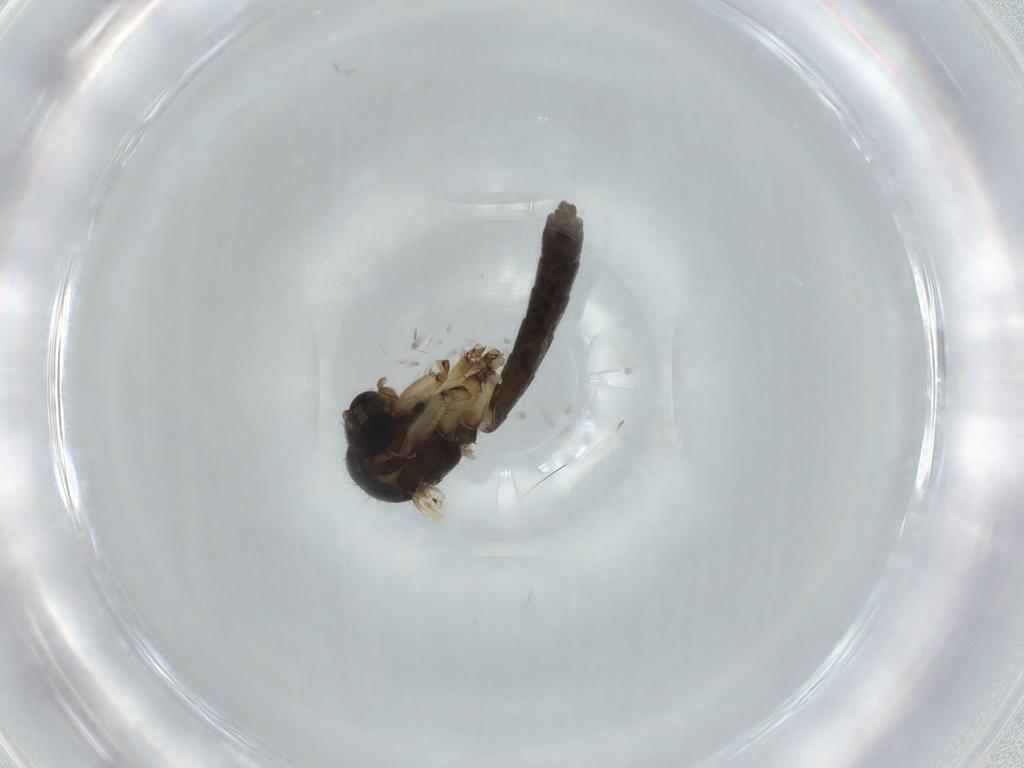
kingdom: Animalia
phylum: Arthropoda
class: Insecta
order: Diptera
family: Mycetophilidae
